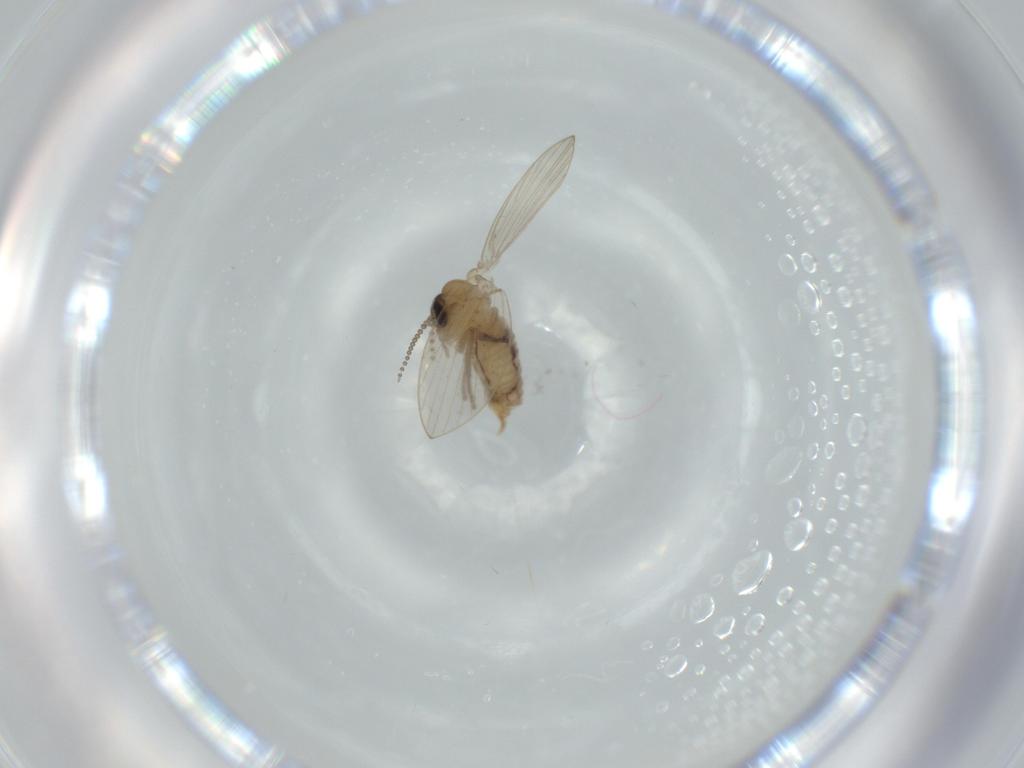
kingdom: Animalia
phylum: Arthropoda
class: Insecta
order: Diptera
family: Psychodidae
